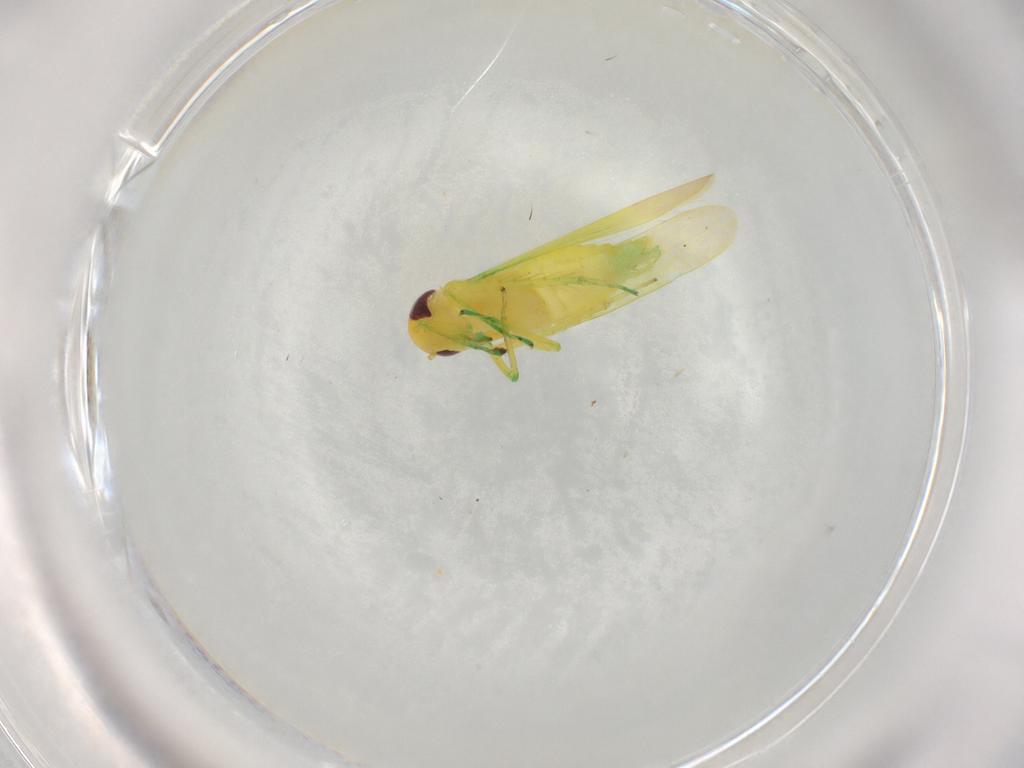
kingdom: Animalia
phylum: Arthropoda
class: Insecta
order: Hemiptera
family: Cicadellidae
